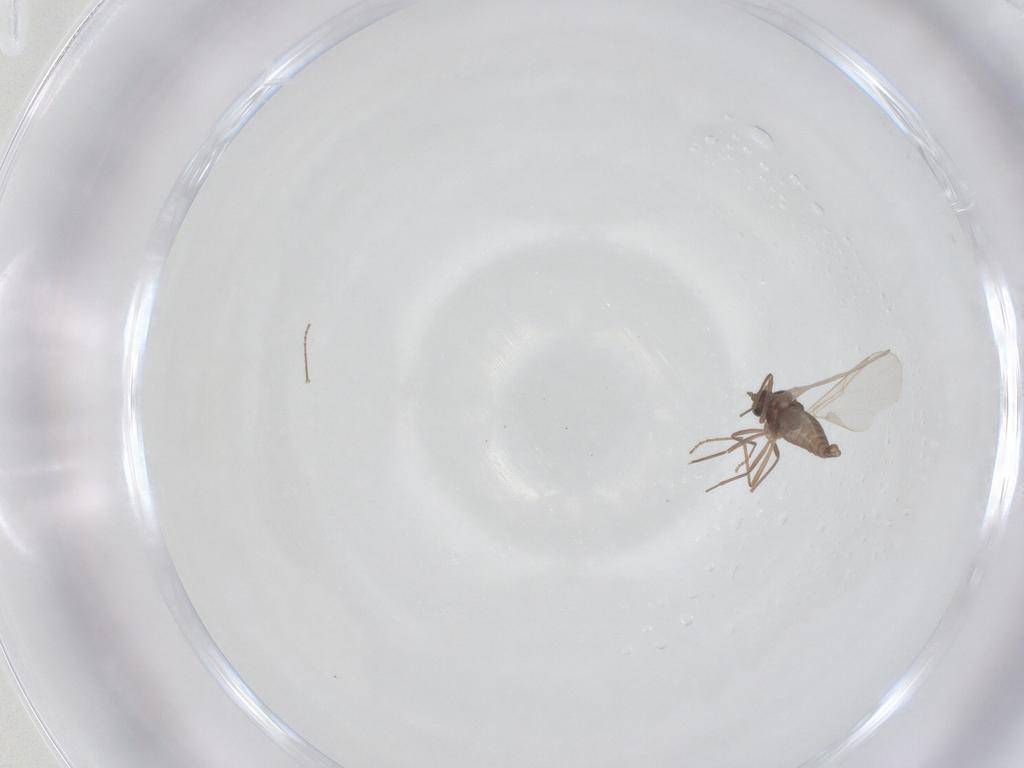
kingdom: Animalia
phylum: Arthropoda
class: Insecta
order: Diptera
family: Cecidomyiidae
